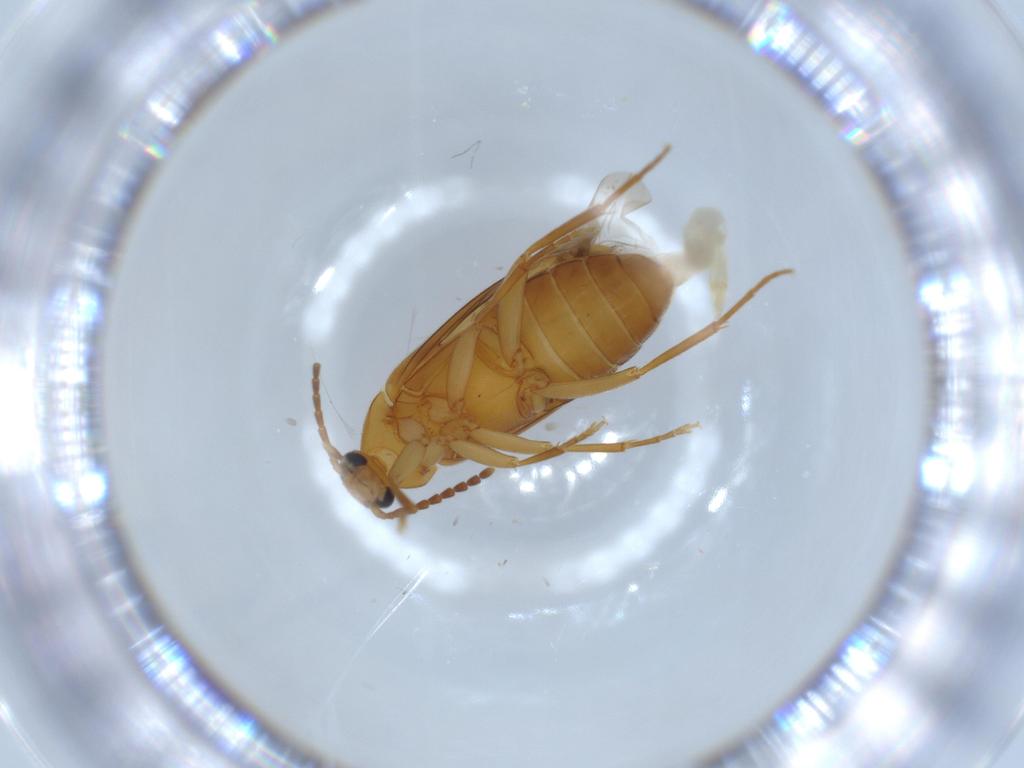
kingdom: Animalia
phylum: Arthropoda
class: Insecta
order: Coleoptera
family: Scraptiidae
